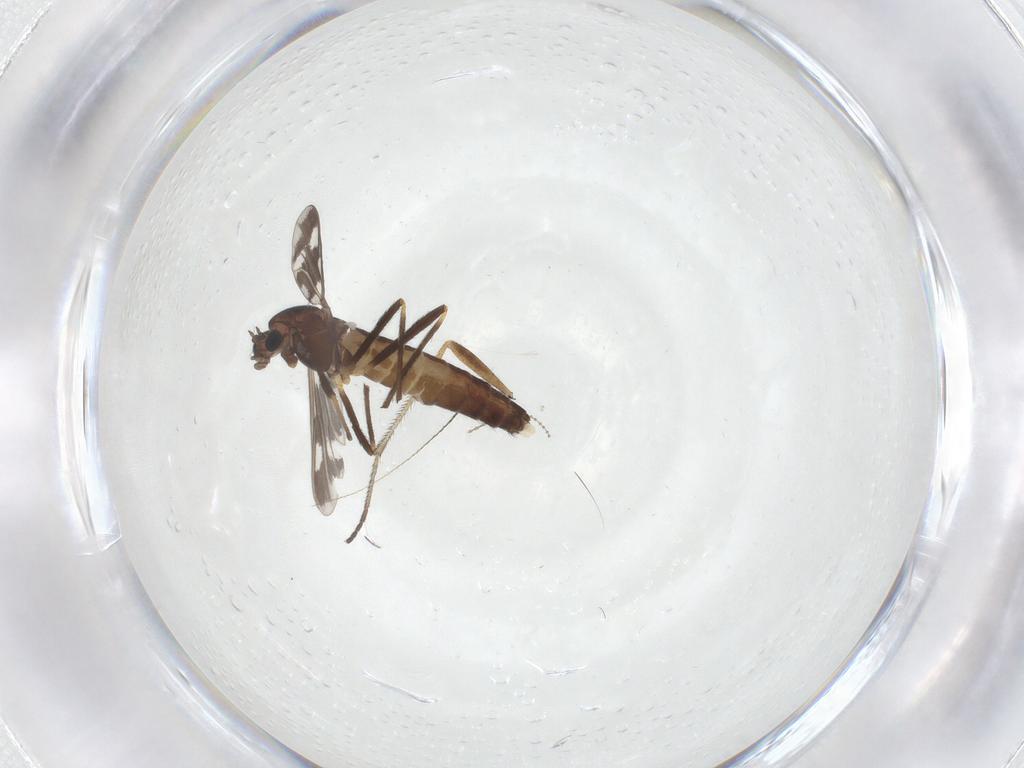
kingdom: Animalia
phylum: Arthropoda
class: Insecta
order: Diptera
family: Chironomidae
